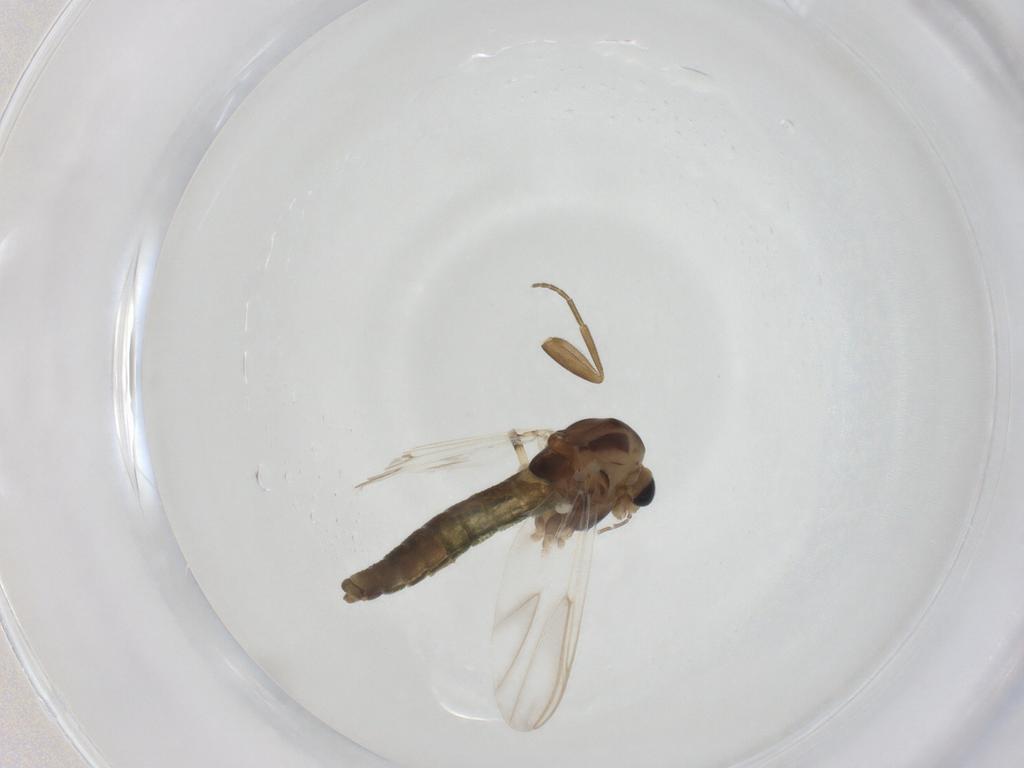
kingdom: Animalia
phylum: Arthropoda
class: Insecta
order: Diptera
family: Chironomidae
